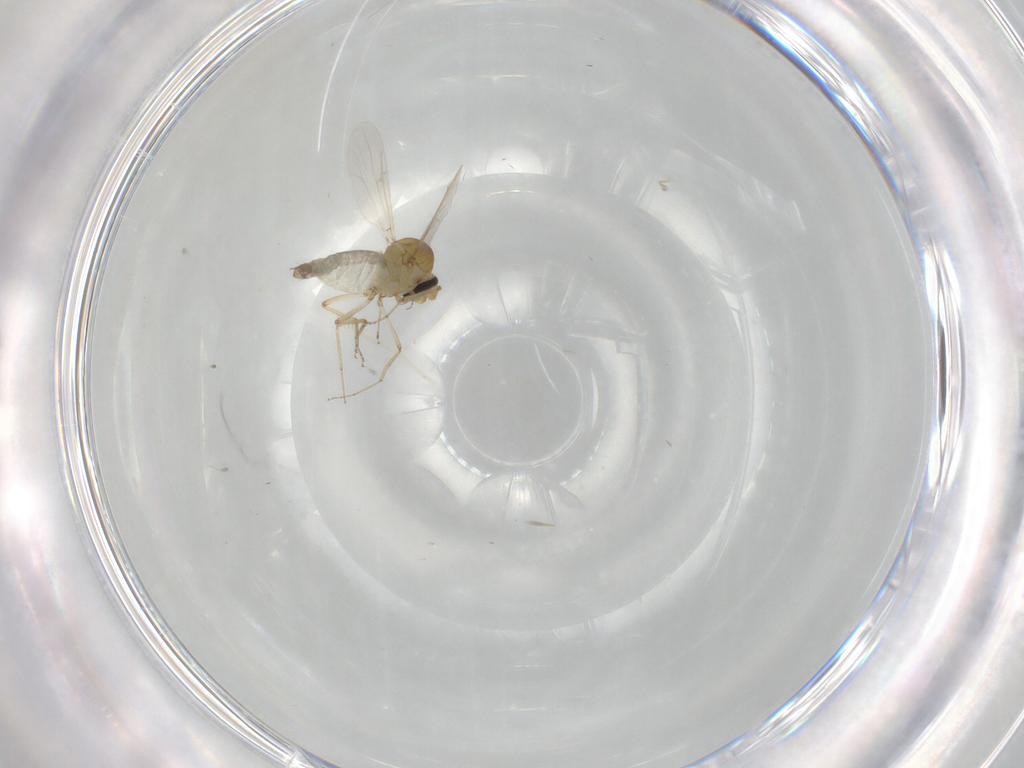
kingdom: Animalia
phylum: Arthropoda
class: Insecta
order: Diptera
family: Ceratopogonidae
